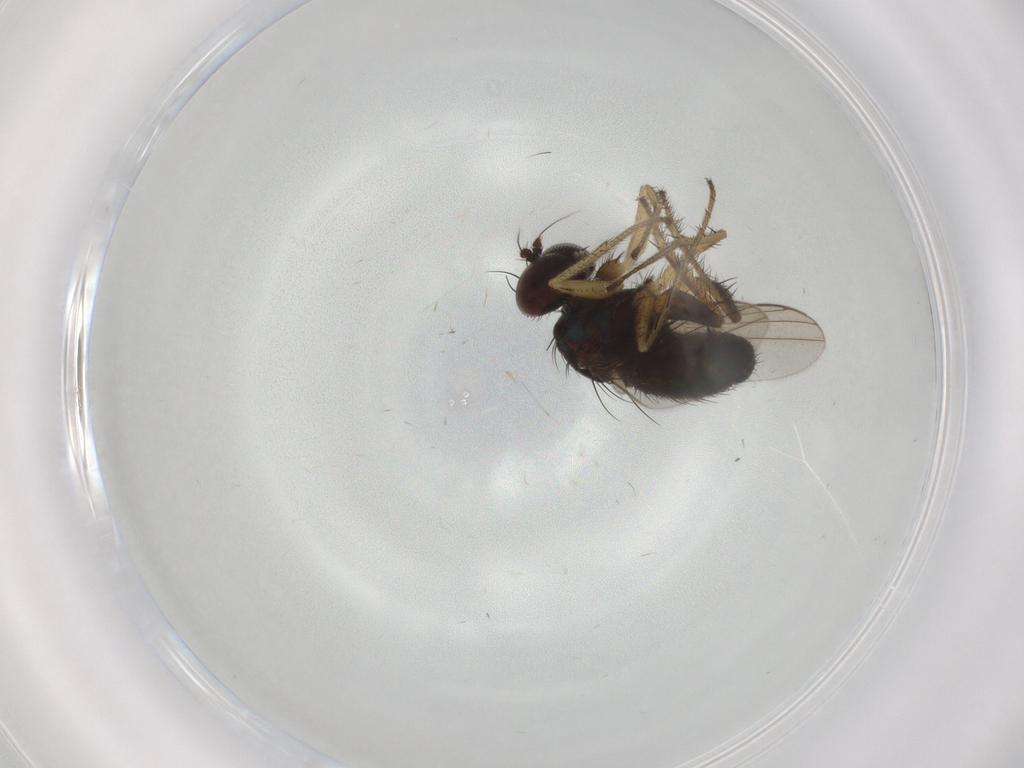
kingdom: Animalia
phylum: Arthropoda
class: Insecta
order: Diptera
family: Dolichopodidae
